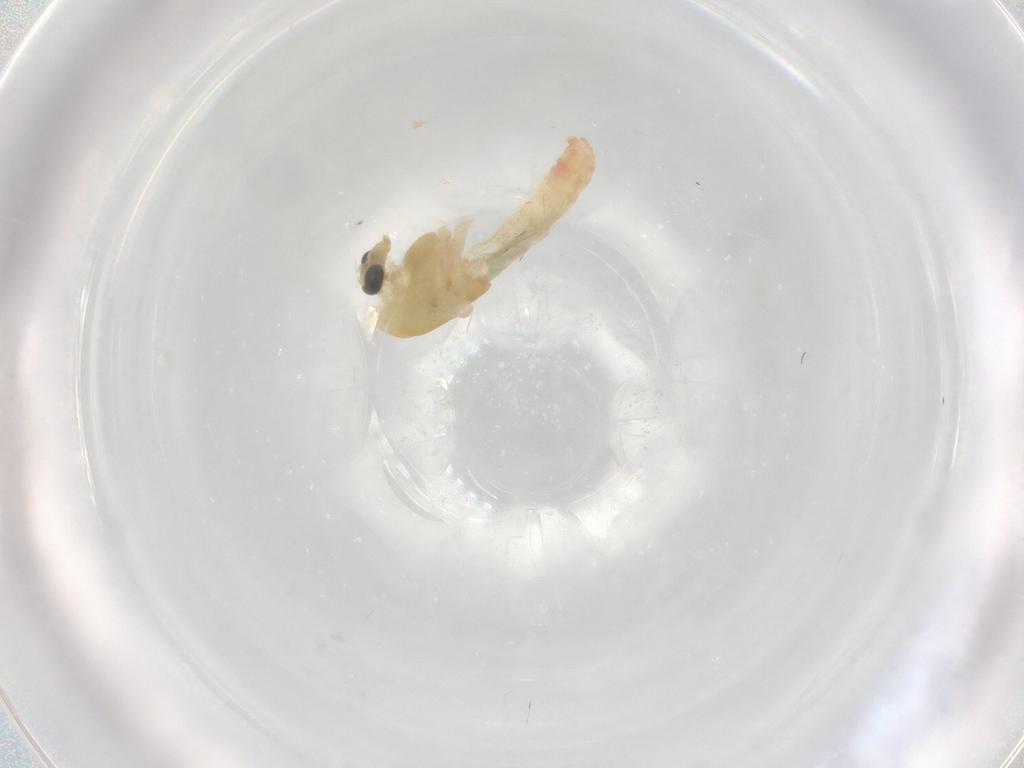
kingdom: Animalia
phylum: Arthropoda
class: Insecta
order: Diptera
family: Chironomidae
